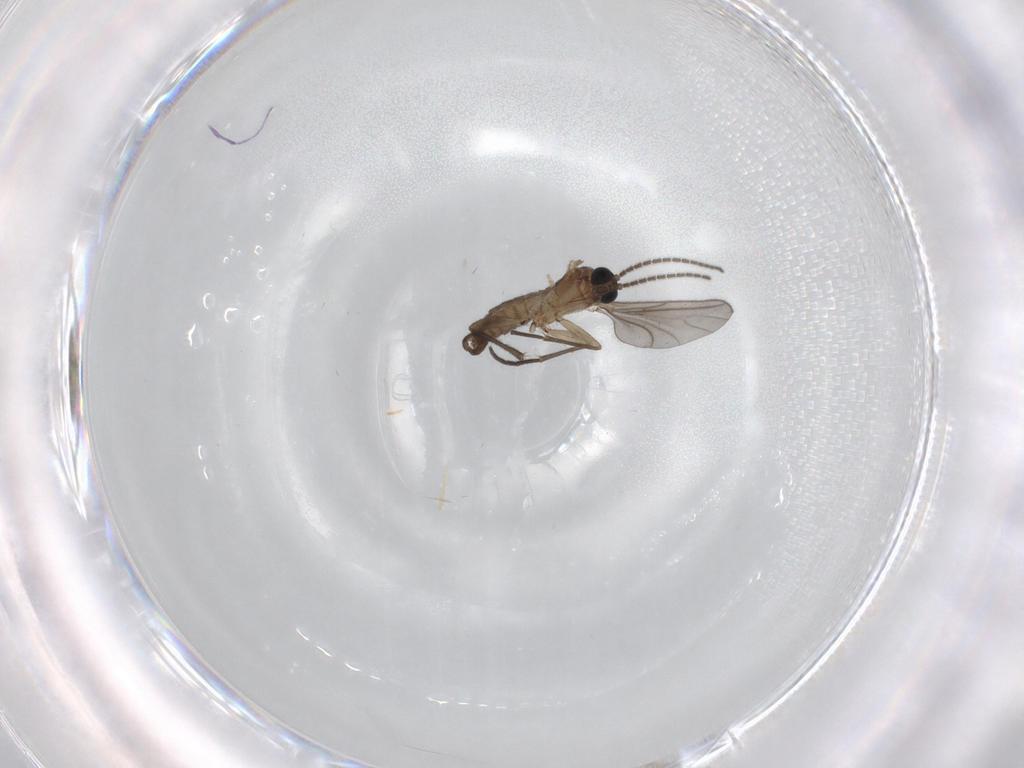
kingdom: Animalia
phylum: Arthropoda
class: Insecta
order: Diptera
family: Sciaridae
